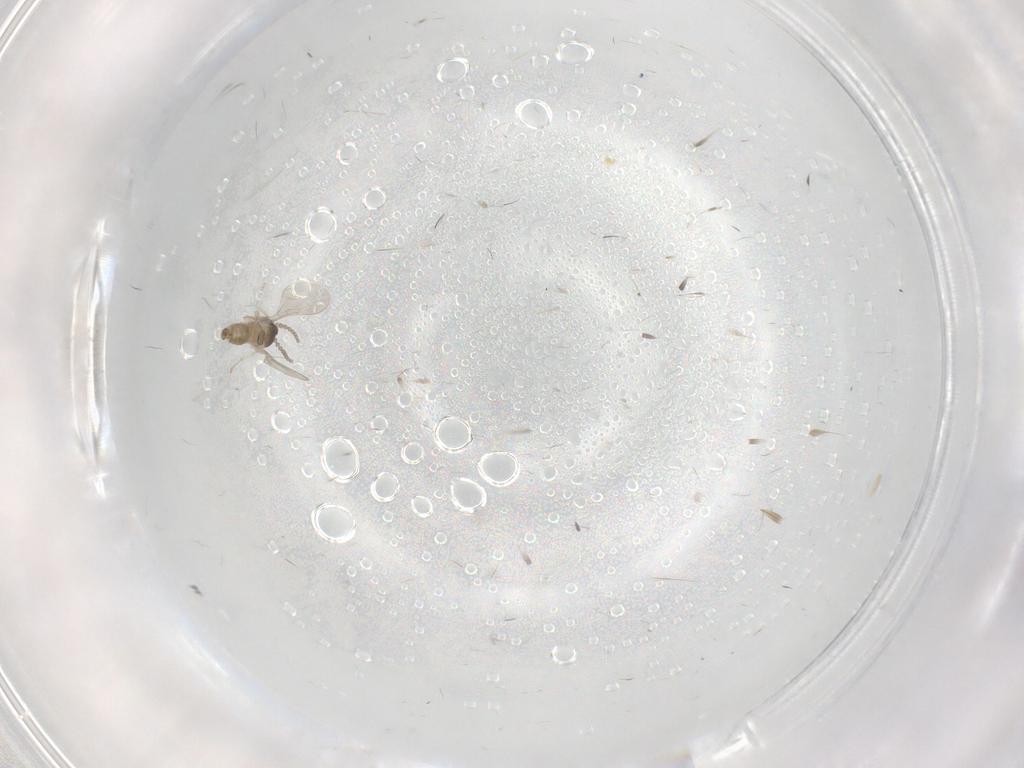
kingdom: Animalia
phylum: Arthropoda
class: Insecta
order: Diptera
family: Cecidomyiidae
